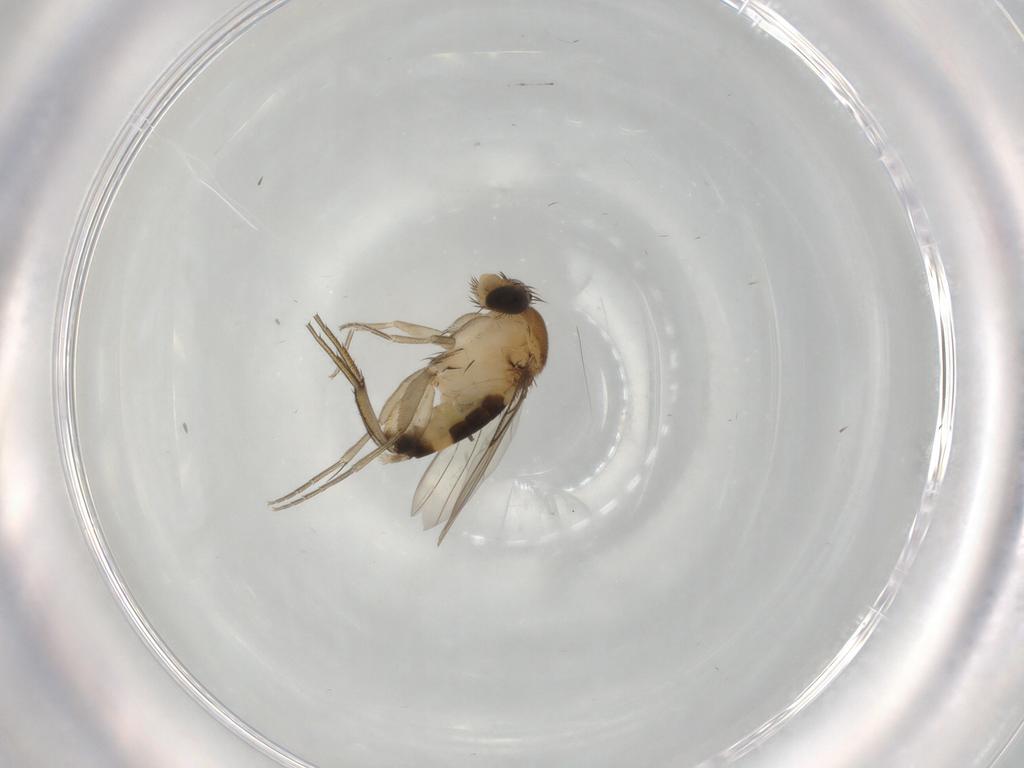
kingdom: Animalia
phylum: Arthropoda
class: Insecta
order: Diptera
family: Phoridae
